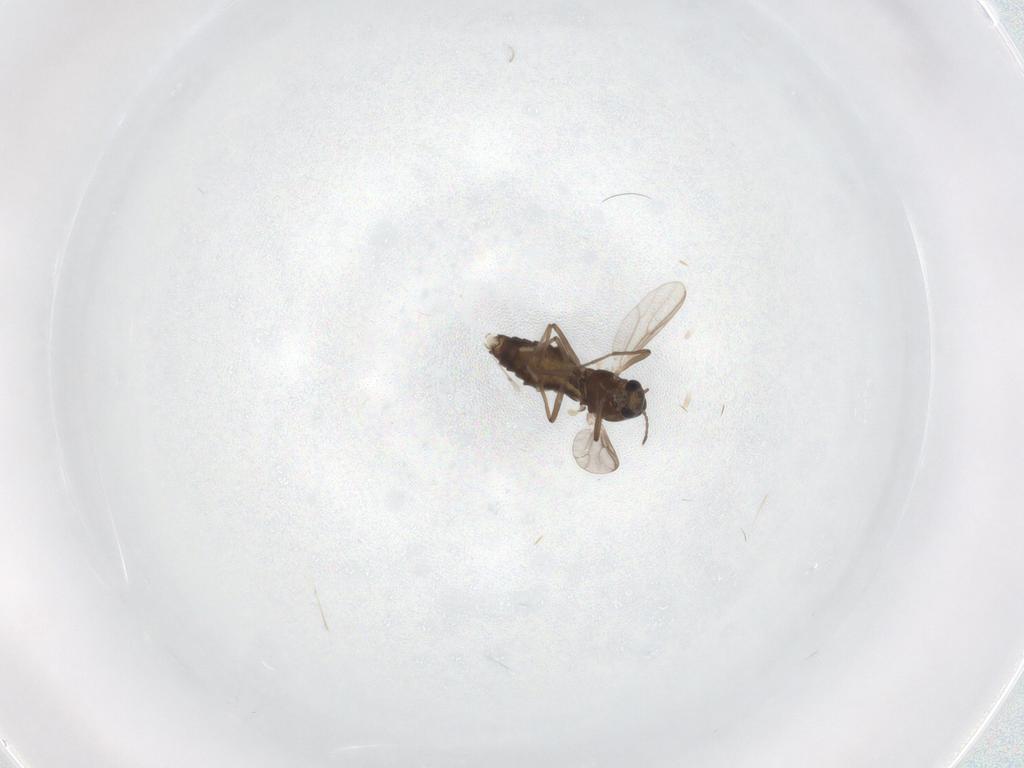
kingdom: Animalia
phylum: Arthropoda
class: Insecta
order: Diptera
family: Chironomidae
